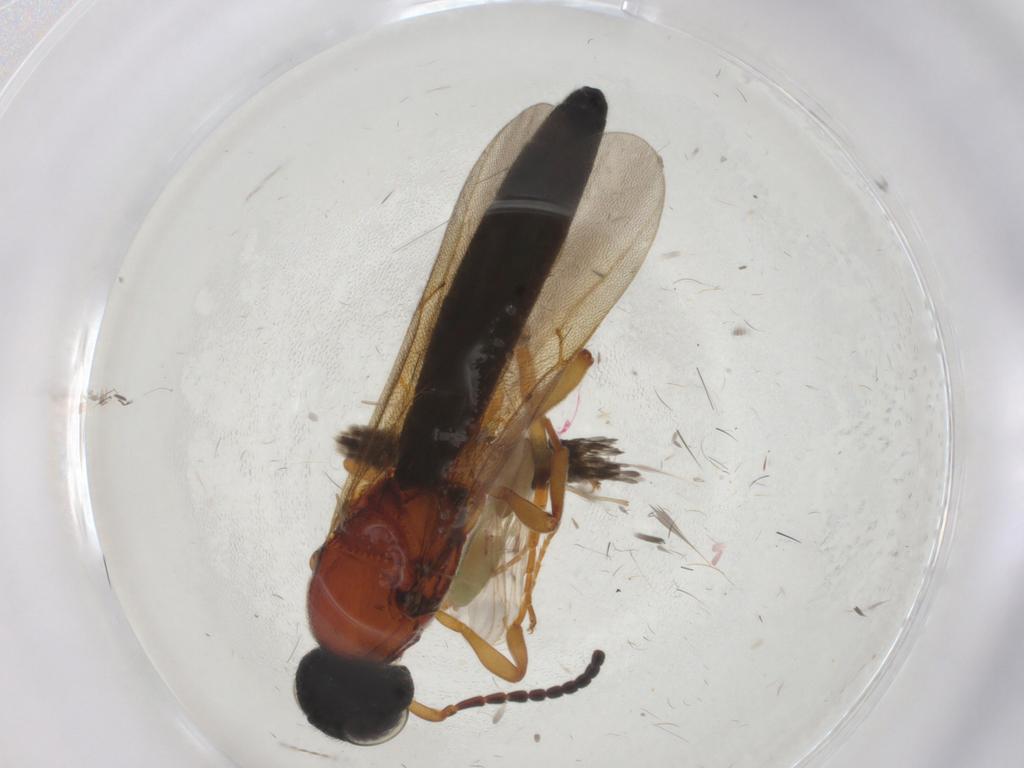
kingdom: Animalia
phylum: Arthropoda
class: Insecta
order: Diptera
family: Chironomidae
